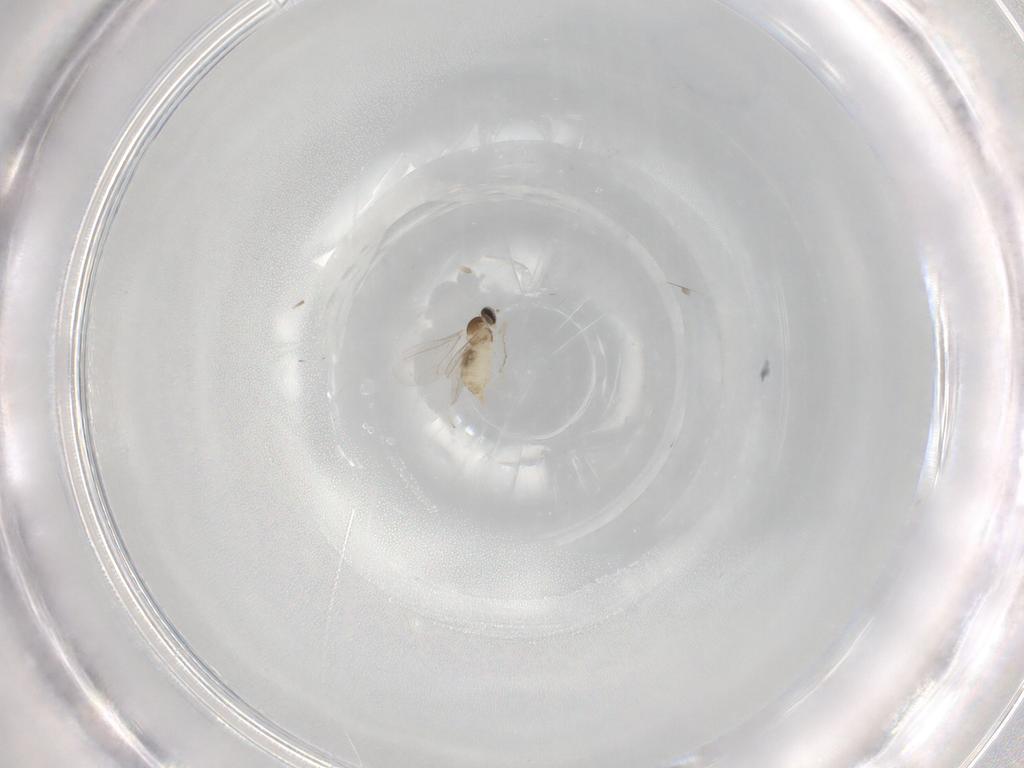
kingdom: Animalia
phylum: Arthropoda
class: Insecta
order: Diptera
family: Cecidomyiidae
